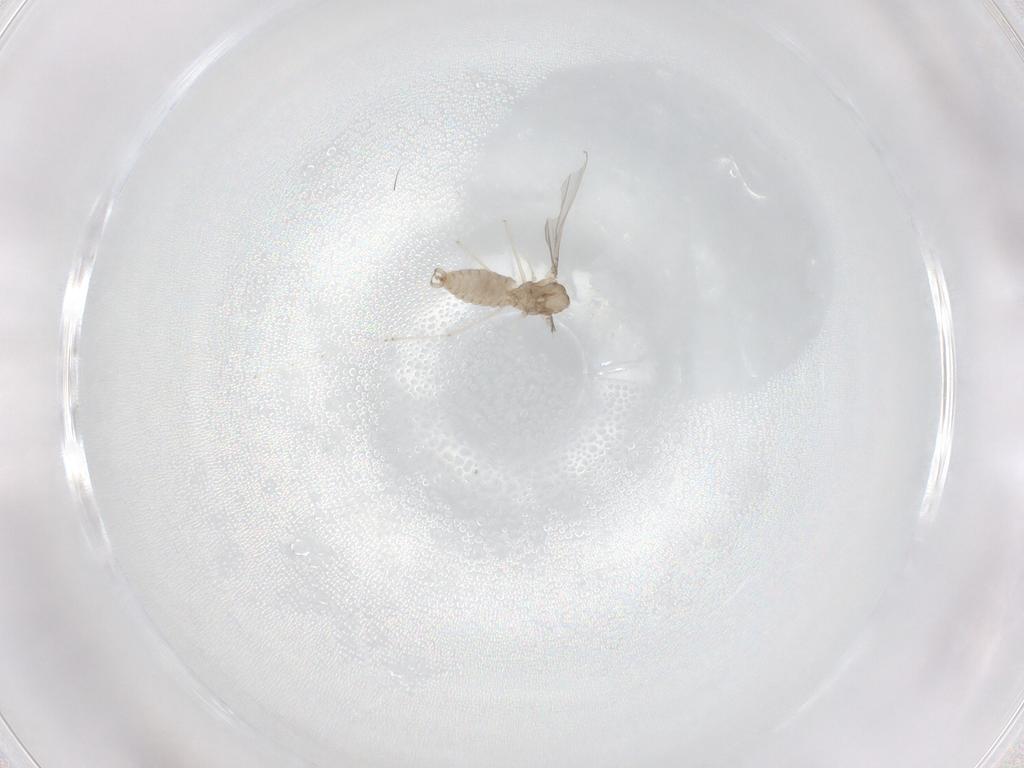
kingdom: Animalia
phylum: Arthropoda
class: Insecta
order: Diptera
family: Cecidomyiidae
